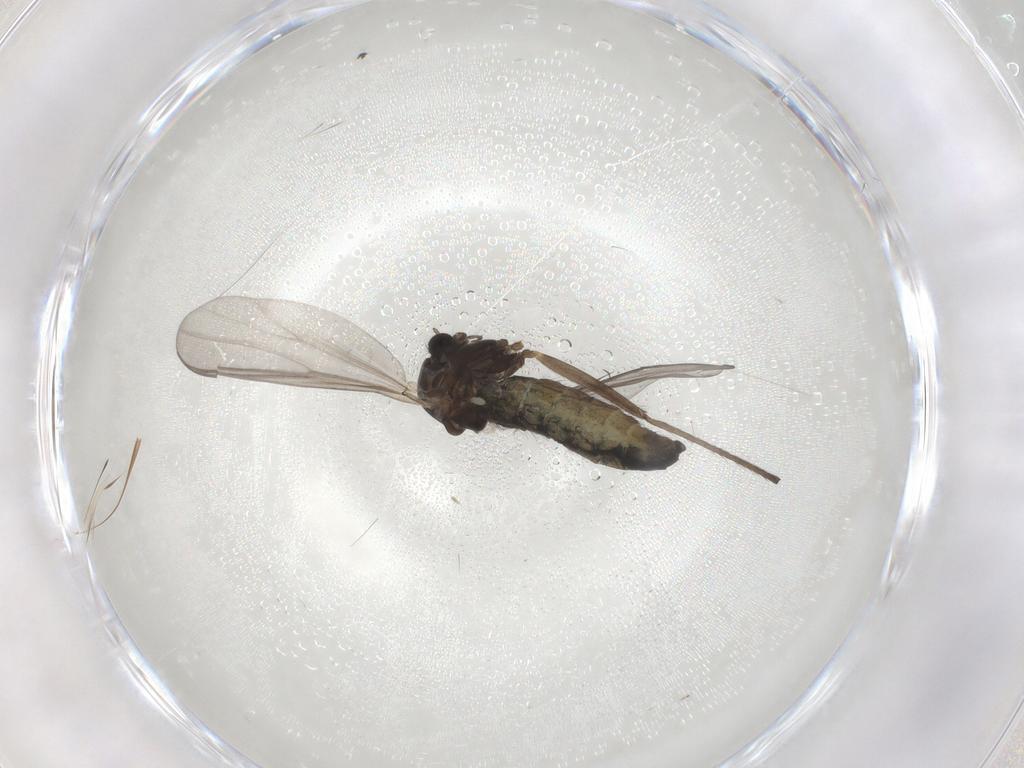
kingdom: Animalia
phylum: Arthropoda
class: Insecta
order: Diptera
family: Chironomidae
